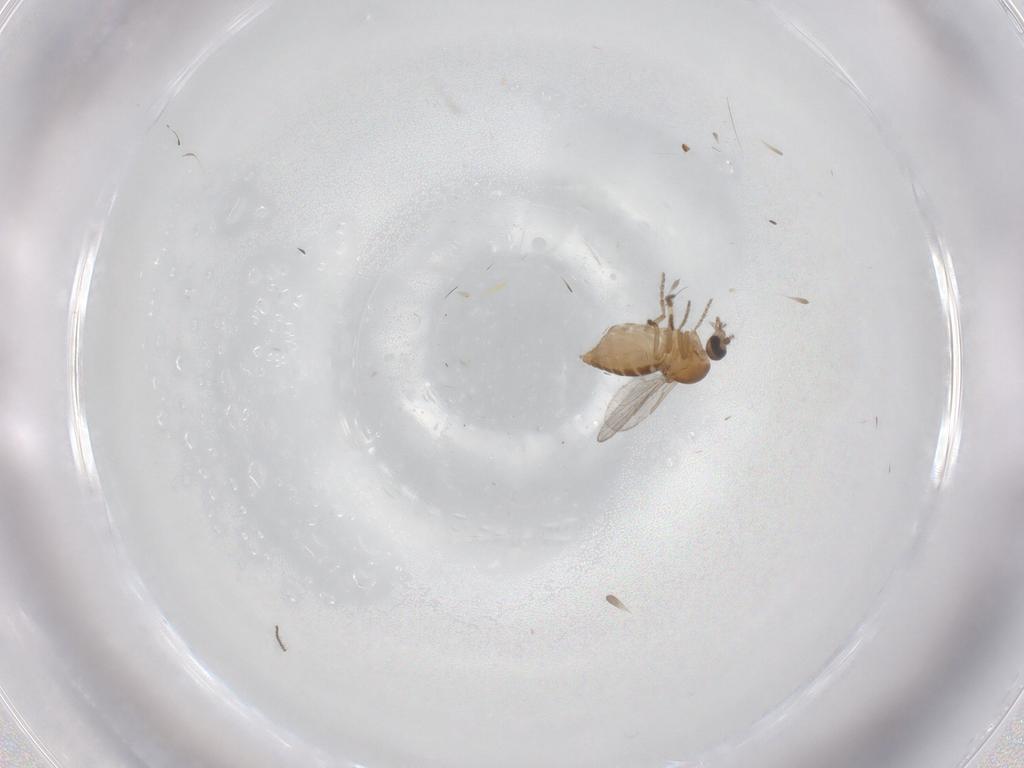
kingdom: Animalia
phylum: Arthropoda
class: Insecta
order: Diptera
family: Ceratopogonidae
